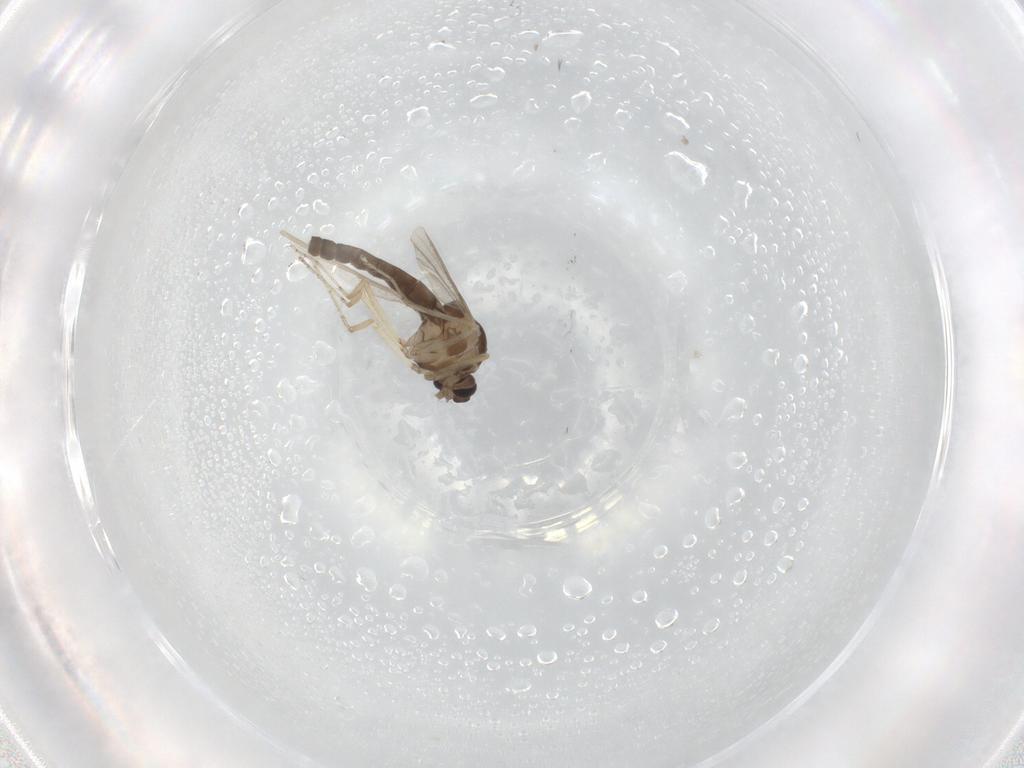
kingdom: Animalia
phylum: Arthropoda
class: Insecta
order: Diptera
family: Ceratopogonidae
